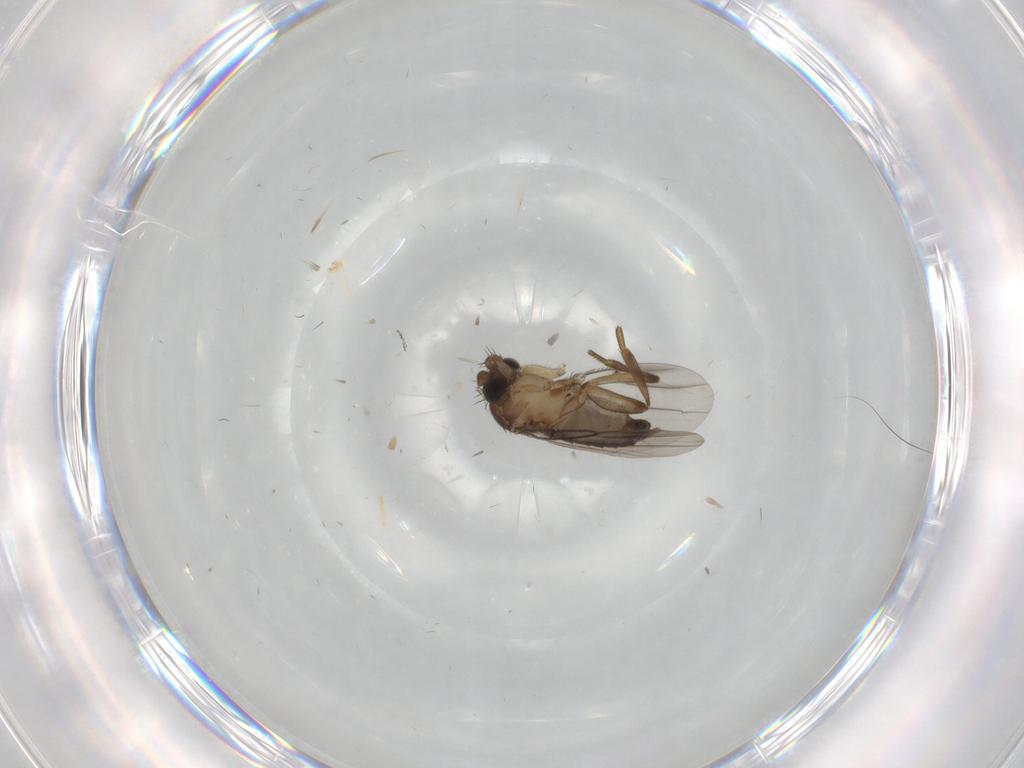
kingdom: Animalia
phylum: Arthropoda
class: Insecta
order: Diptera
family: Phoridae
